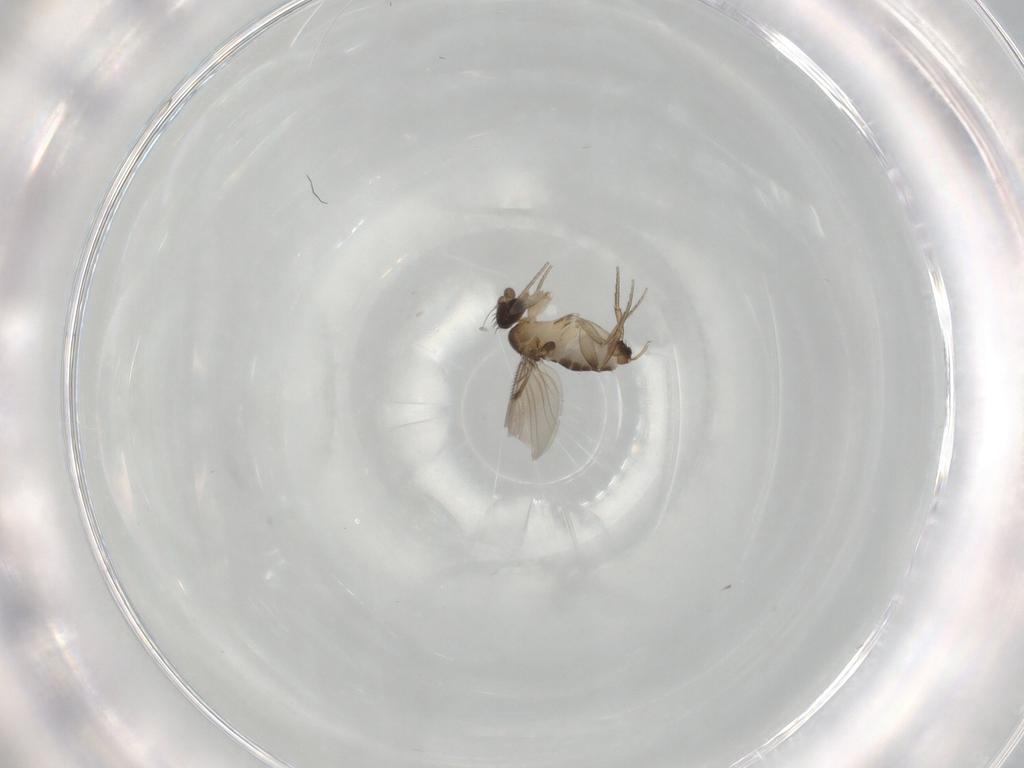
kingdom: Animalia
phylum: Arthropoda
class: Insecta
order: Diptera
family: Phoridae
